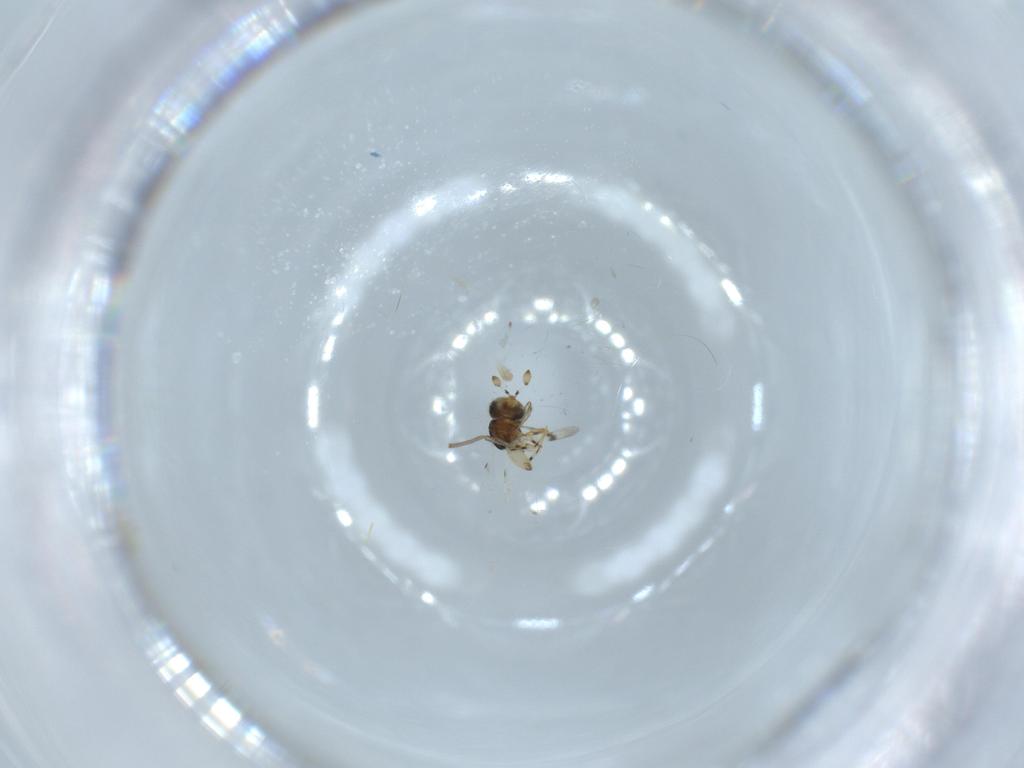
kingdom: Animalia
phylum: Arthropoda
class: Insecta
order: Hymenoptera
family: Scelionidae
